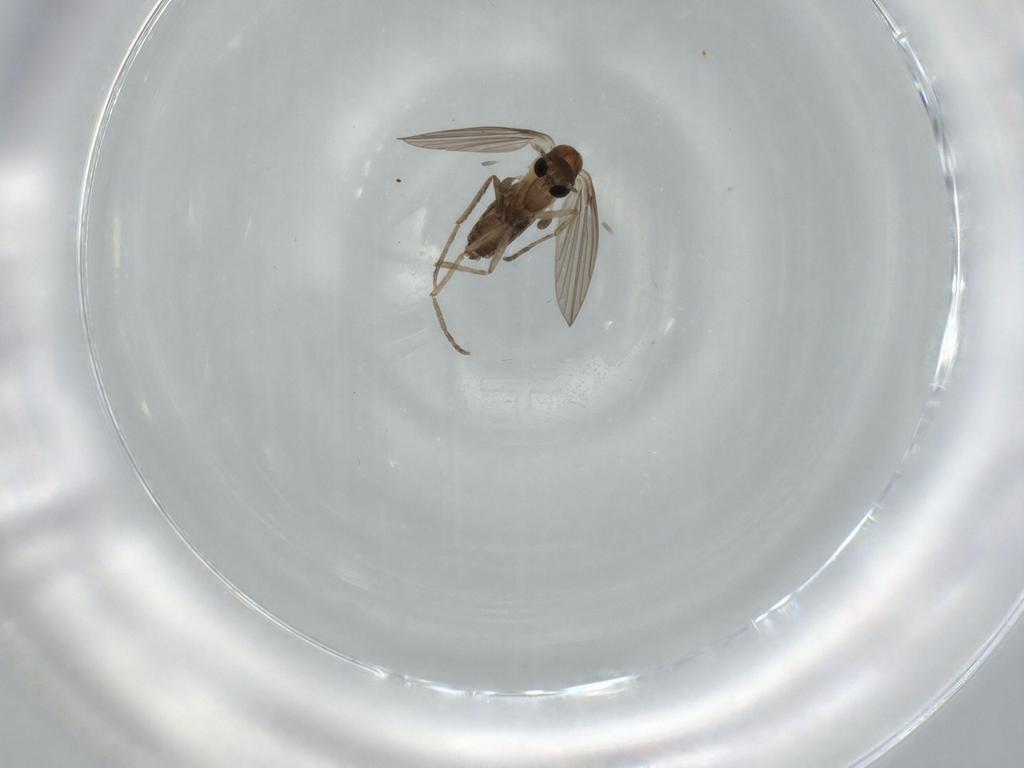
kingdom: Animalia
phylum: Arthropoda
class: Insecta
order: Diptera
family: Psychodidae
